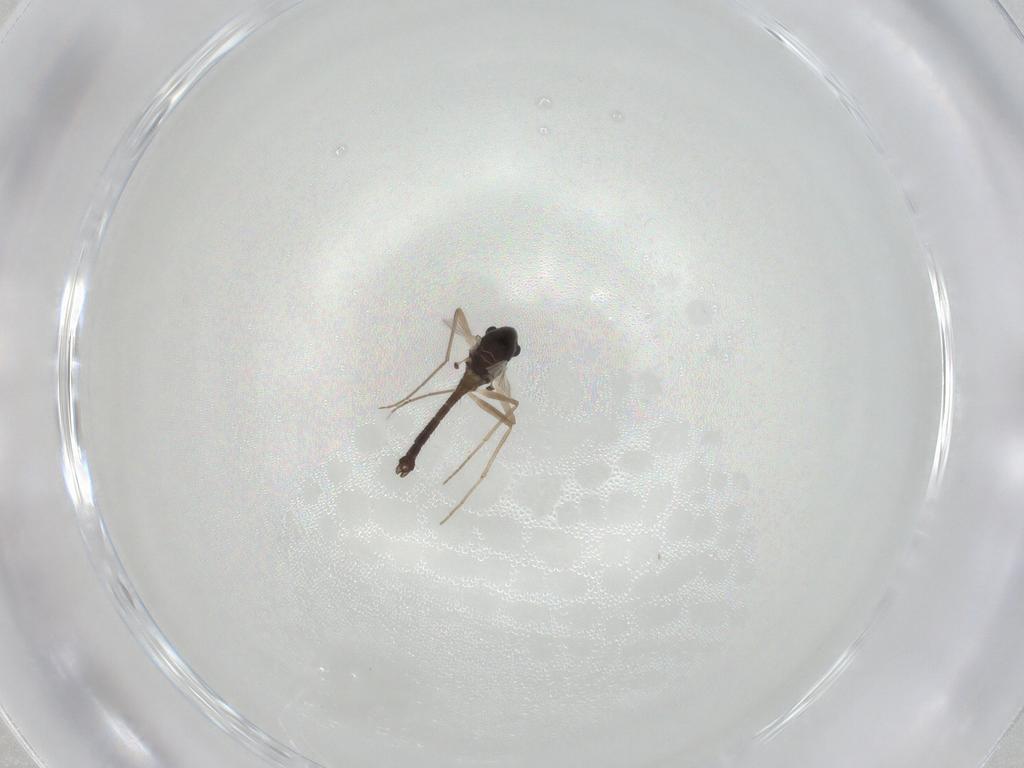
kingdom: Animalia
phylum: Arthropoda
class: Insecta
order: Diptera
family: Chironomidae
